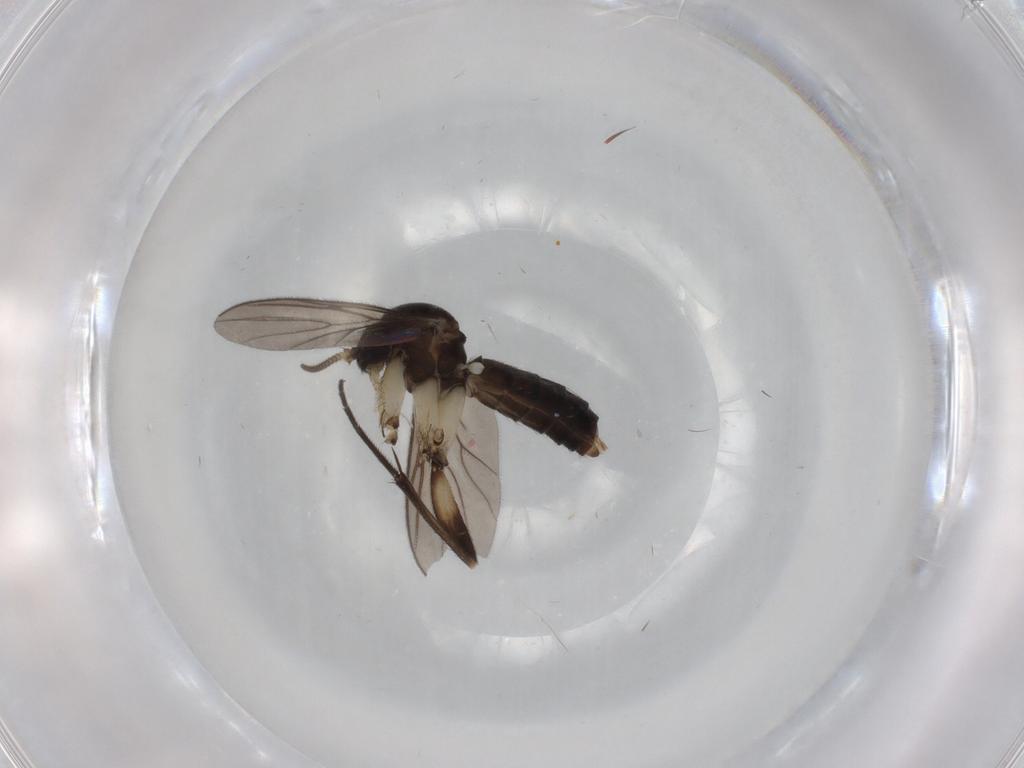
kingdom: Animalia
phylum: Arthropoda
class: Insecta
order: Diptera
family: Mycetophilidae
